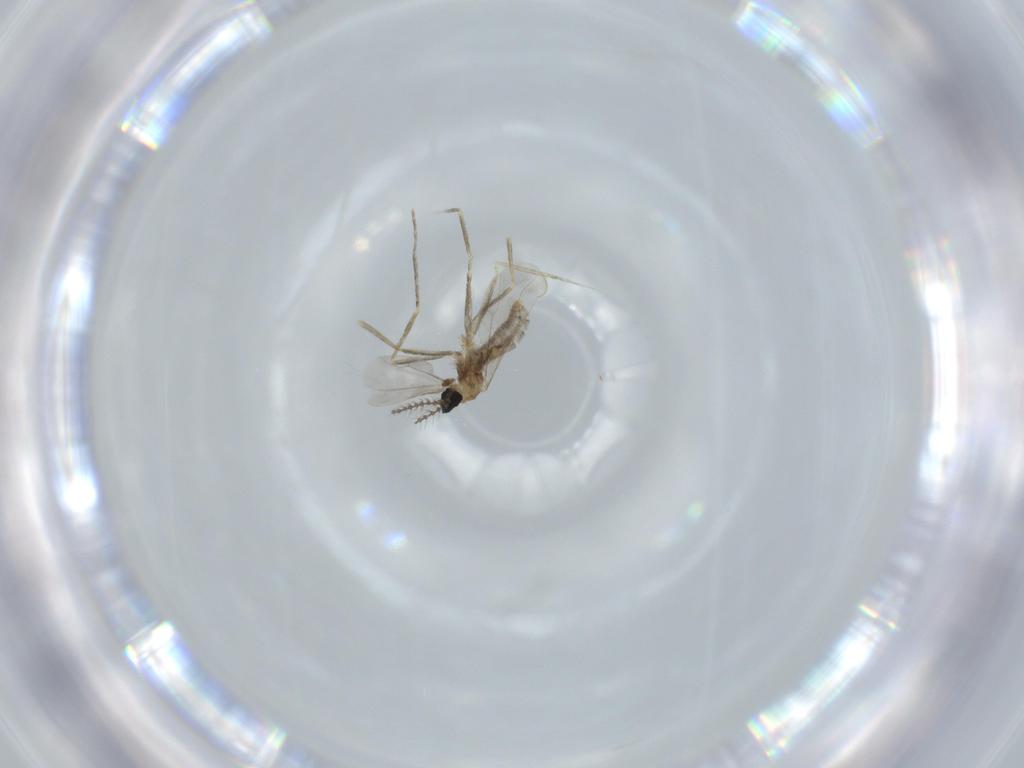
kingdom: Animalia
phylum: Arthropoda
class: Insecta
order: Diptera
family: Cecidomyiidae
